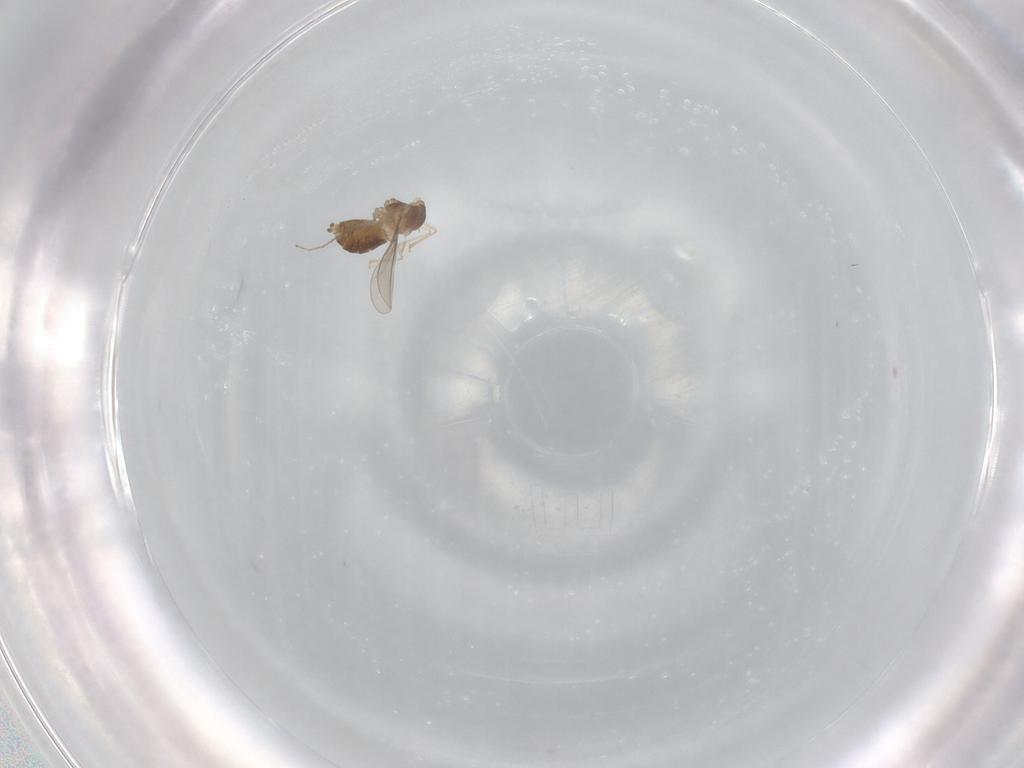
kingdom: Animalia
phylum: Arthropoda
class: Insecta
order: Diptera
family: Cecidomyiidae
